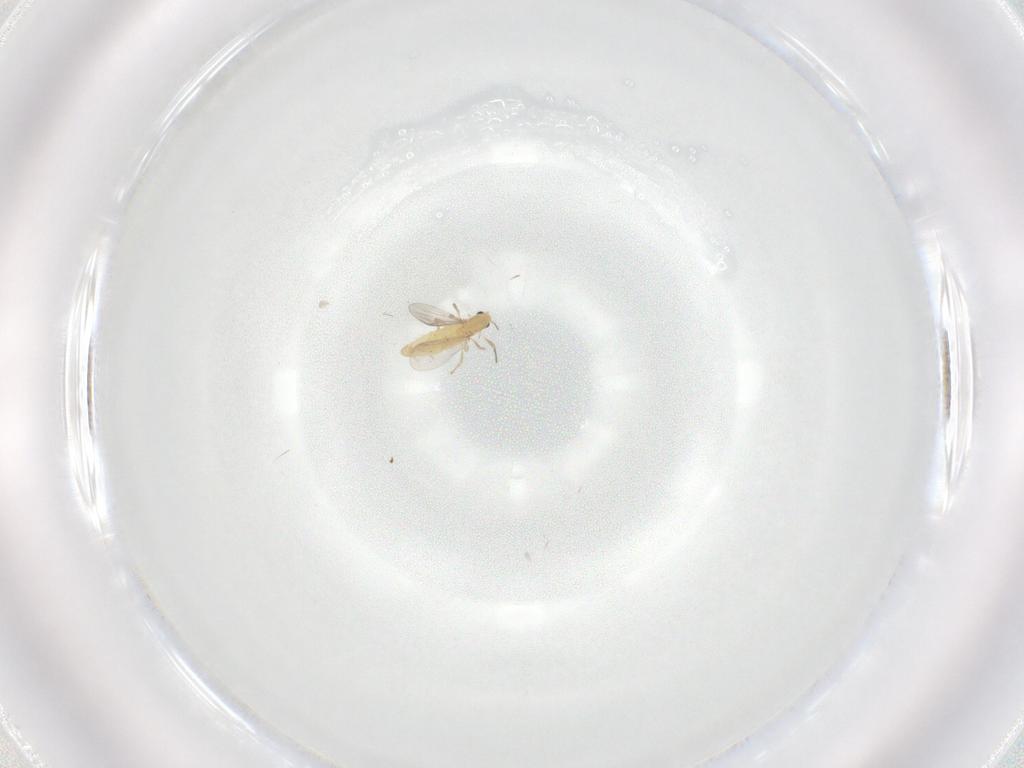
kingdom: Animalia
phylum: Arthropoda
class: Insecta
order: Diptera
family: Chironomidae
